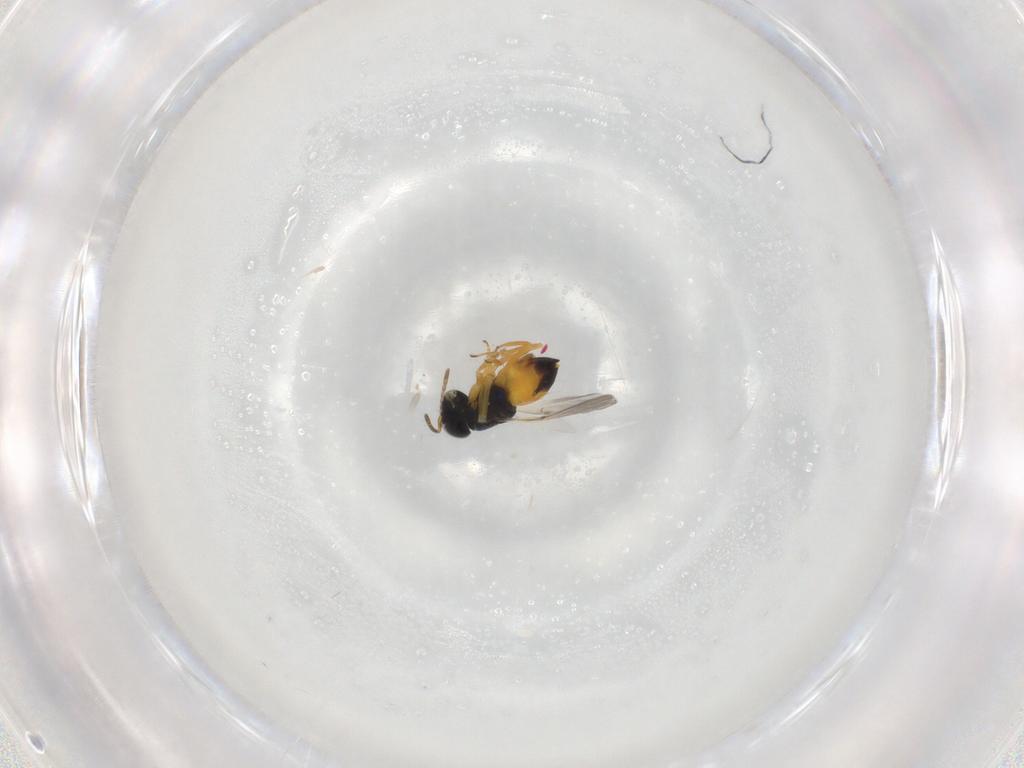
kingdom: Animalia
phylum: Arthropoda
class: Insecta
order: Hymenoptera
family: Encyrtidae
